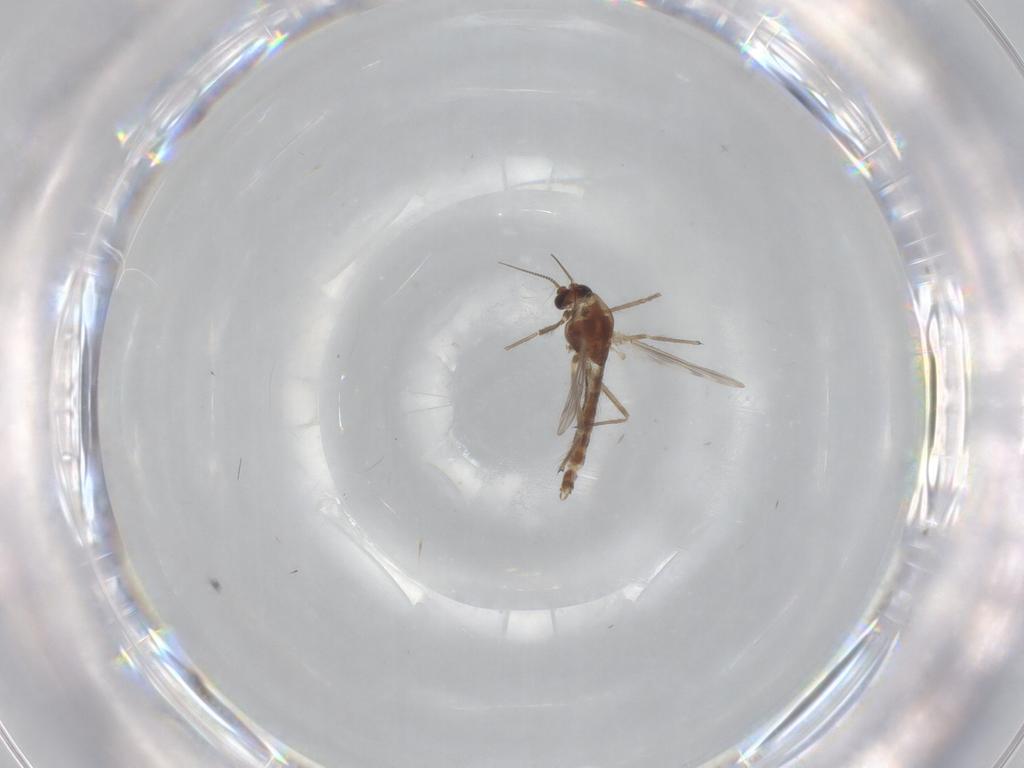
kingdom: Animalia
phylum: Arthropoda
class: Insecta
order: Diptera
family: Chironomidae
